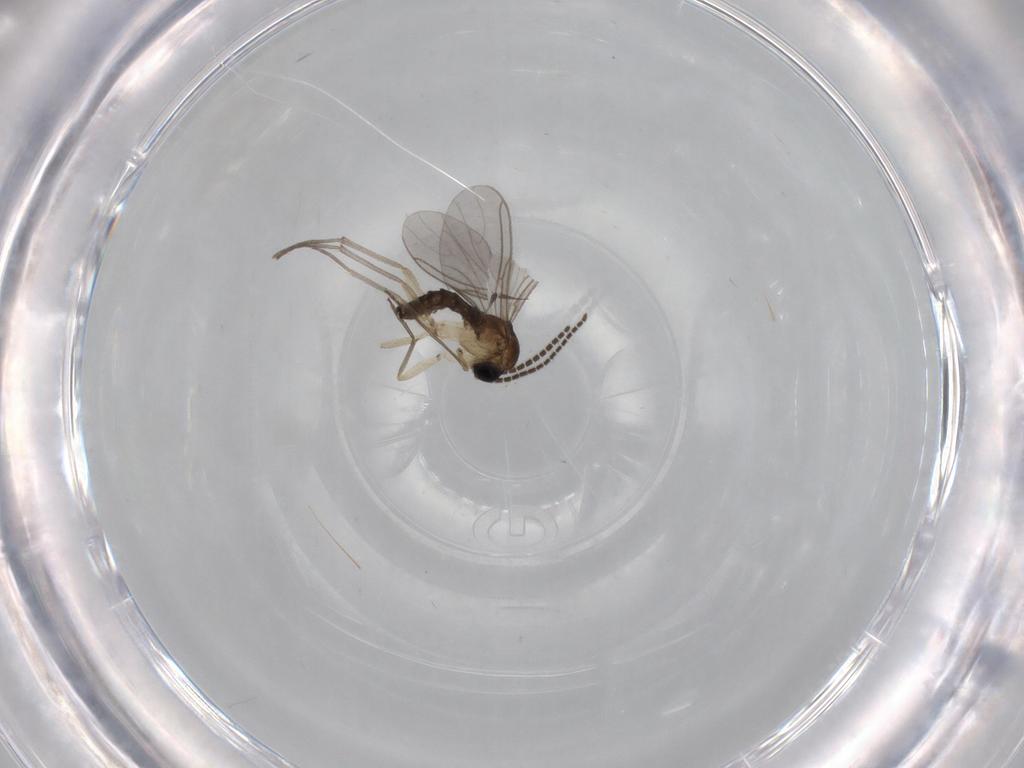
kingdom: Animalia
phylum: Arthropoda
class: Insecta
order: Diptera
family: Sciaridae
